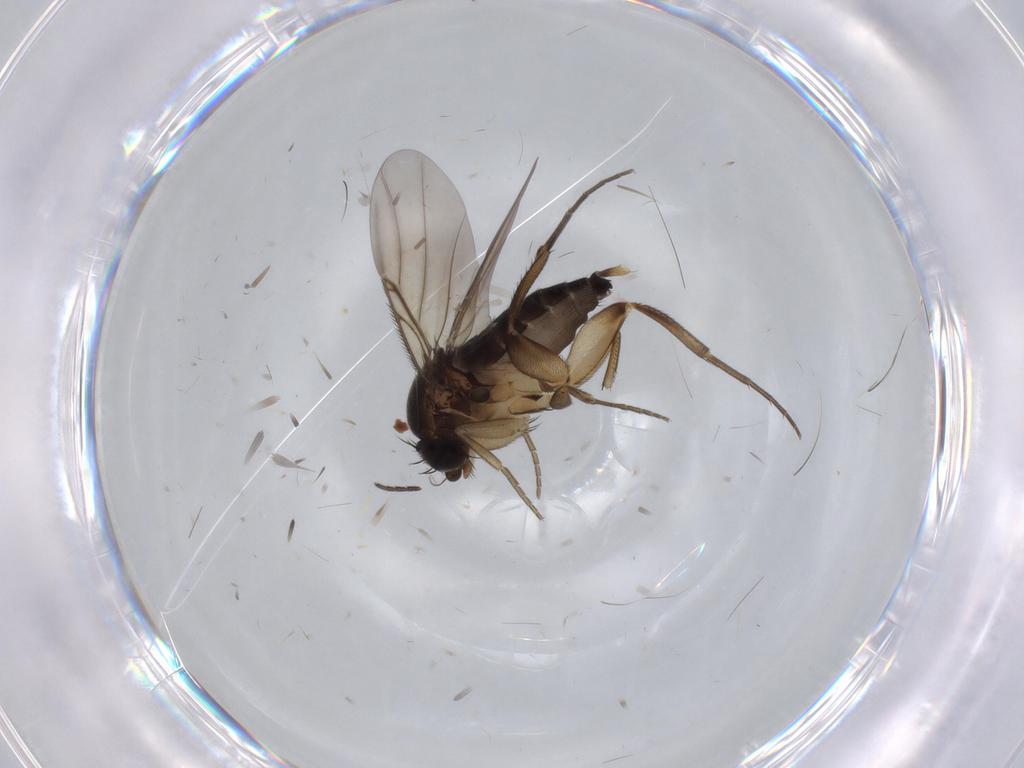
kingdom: Animalia
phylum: Arthropoda
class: Insecta
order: Diptera
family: Phoridae
